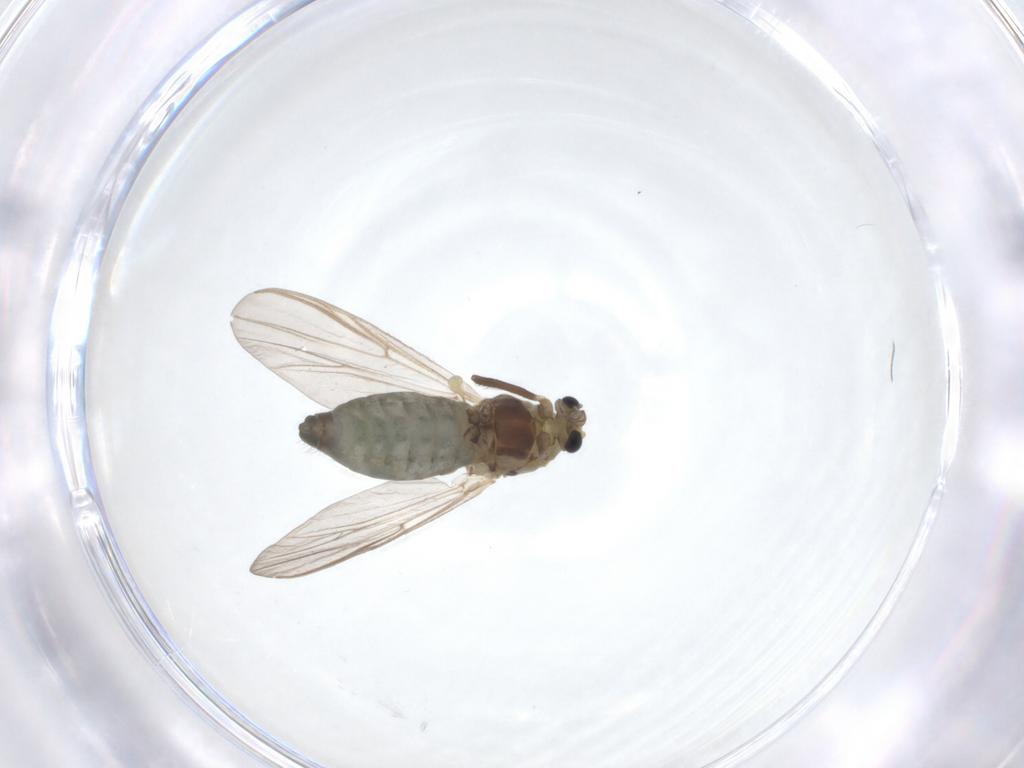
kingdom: Animalia
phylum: Arthropoda
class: Insecta
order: Diptera
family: Chironomidae
